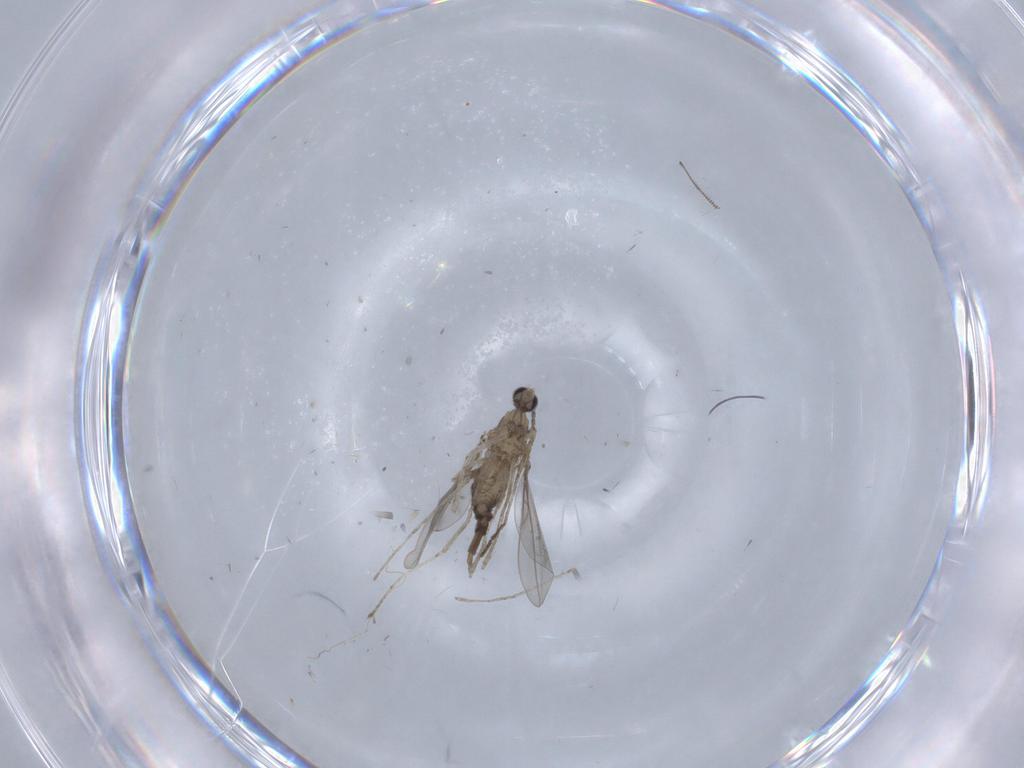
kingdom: Animalia
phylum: Arthropoda
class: Insecta
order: Diptera
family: Cecidomyiidae
